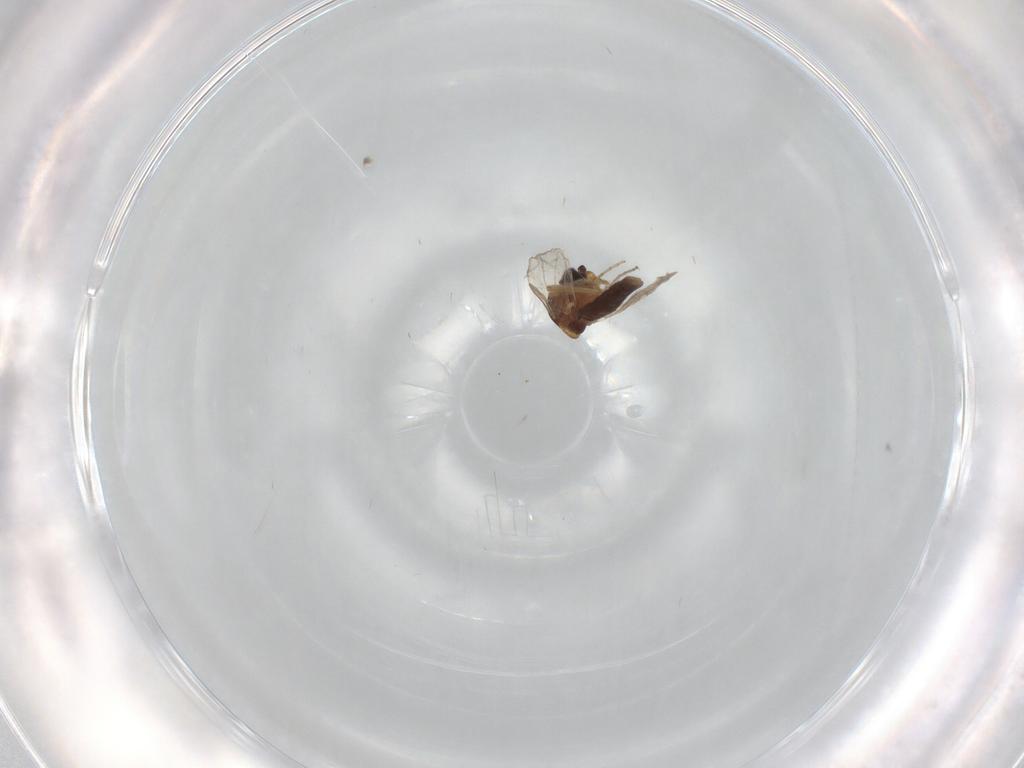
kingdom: Animalia
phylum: Arthropoda
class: Insecta
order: Diptera
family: Ceratopogonidae
